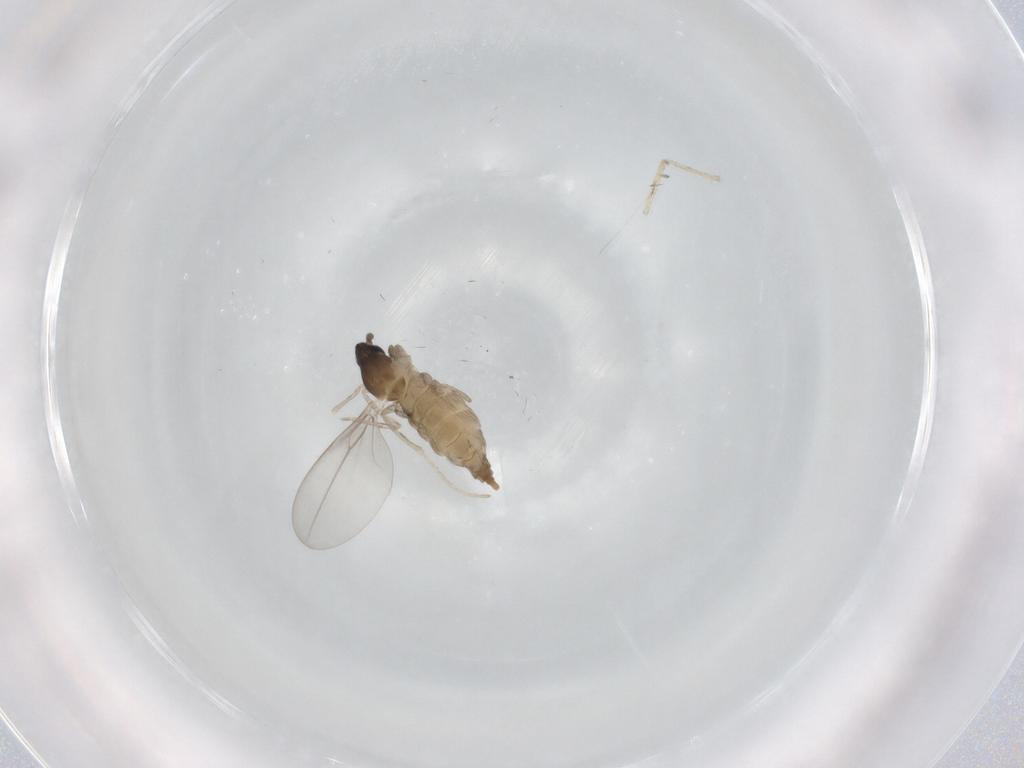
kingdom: Animalia
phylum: Arthropoda
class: Insecta
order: Diptera
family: Cecidomyiidae
